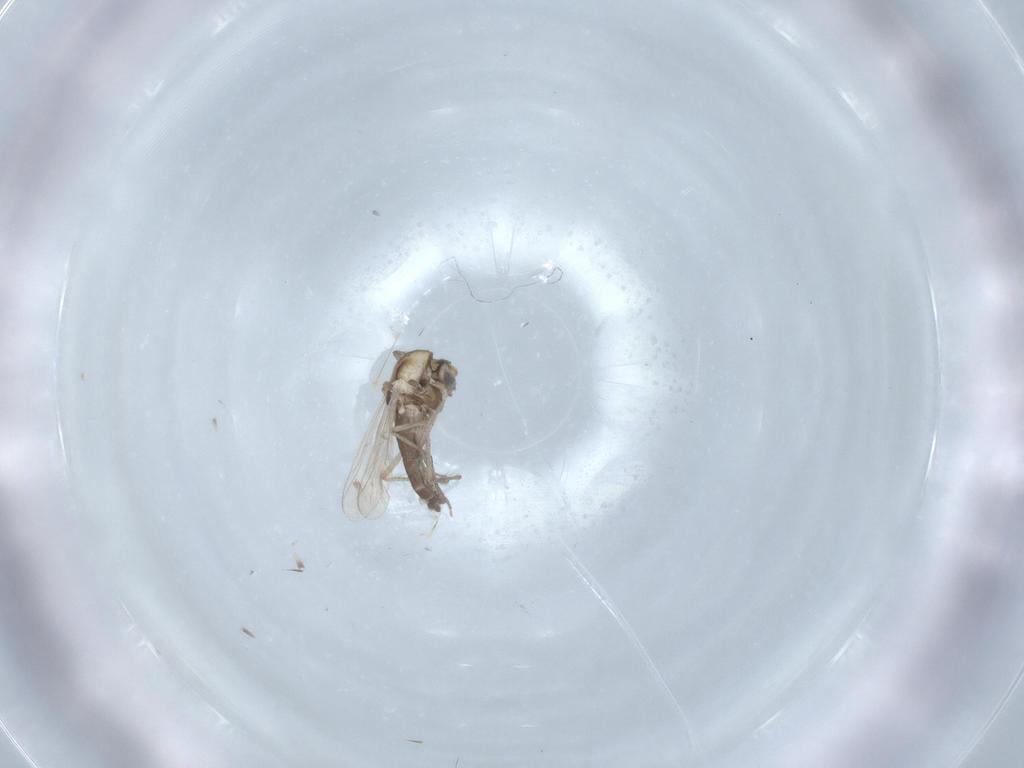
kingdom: Animalia
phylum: Arthropoda
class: Insecta
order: Diptera
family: Chironomidae
